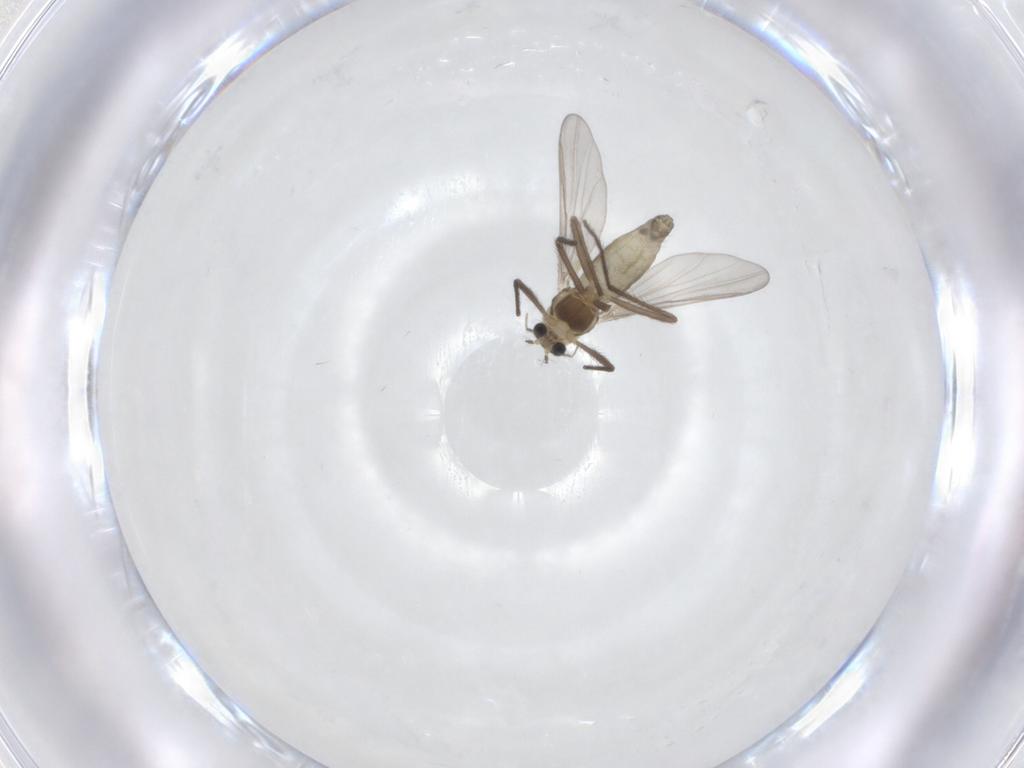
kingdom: Animalia
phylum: Arthropoda
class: Insecta
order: Diptera
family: Chironomidae
